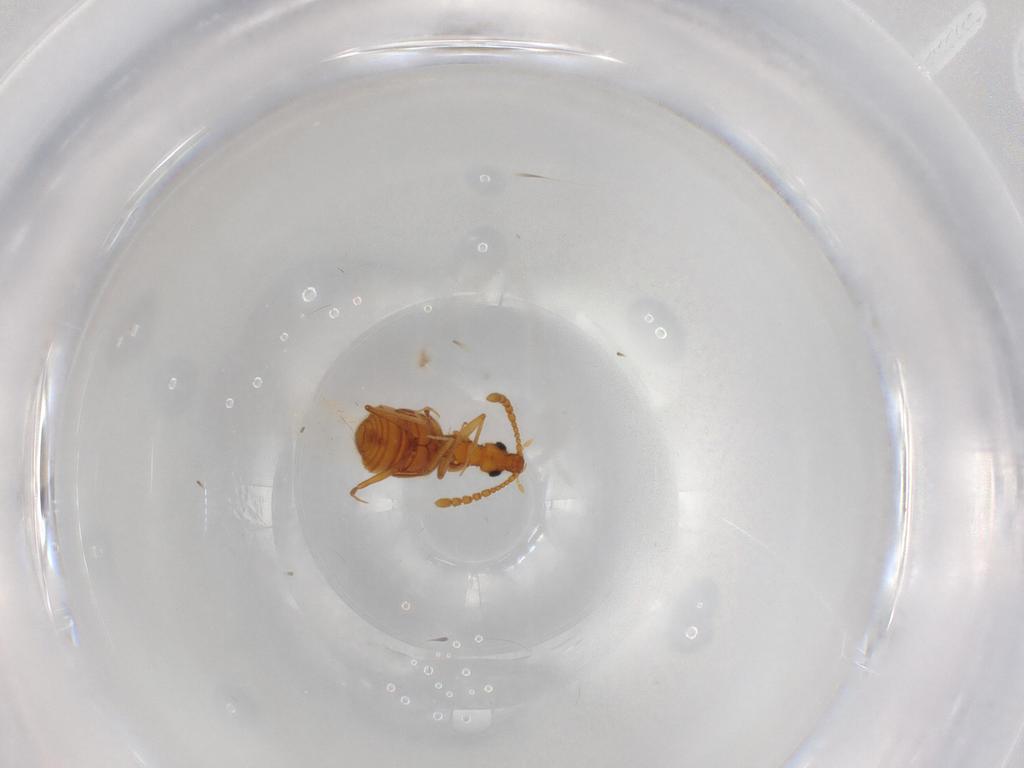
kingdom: Animalia
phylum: Arthropoda
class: Insecta
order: Coleoptera
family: Staphylinidae
